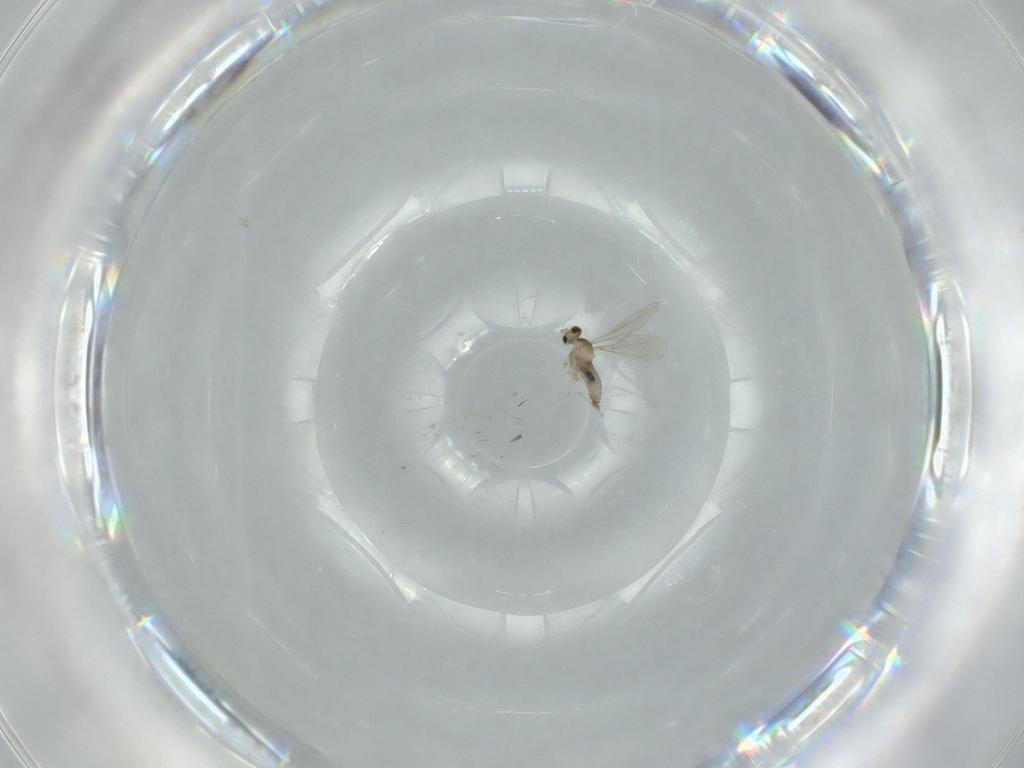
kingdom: Animalia
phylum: Arthropoda
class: Insecta
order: Diptera
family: Cecidomyiidae
